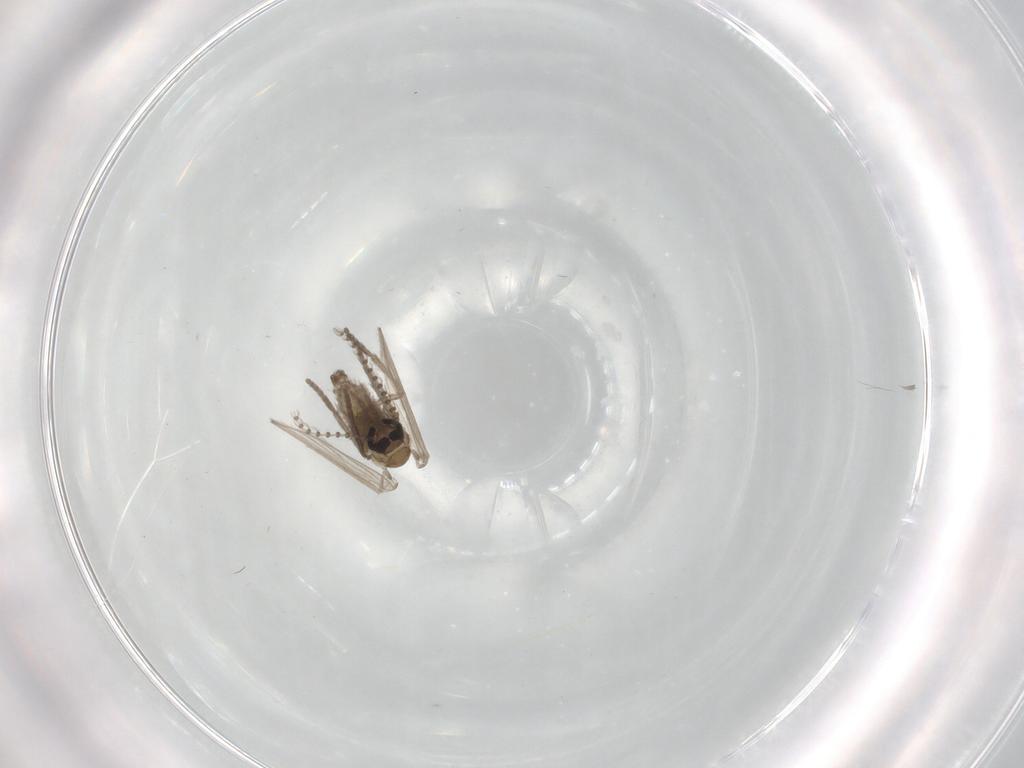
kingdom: Animalia
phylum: Arthropoda
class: Insecta
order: Diptera
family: Psychodidae
